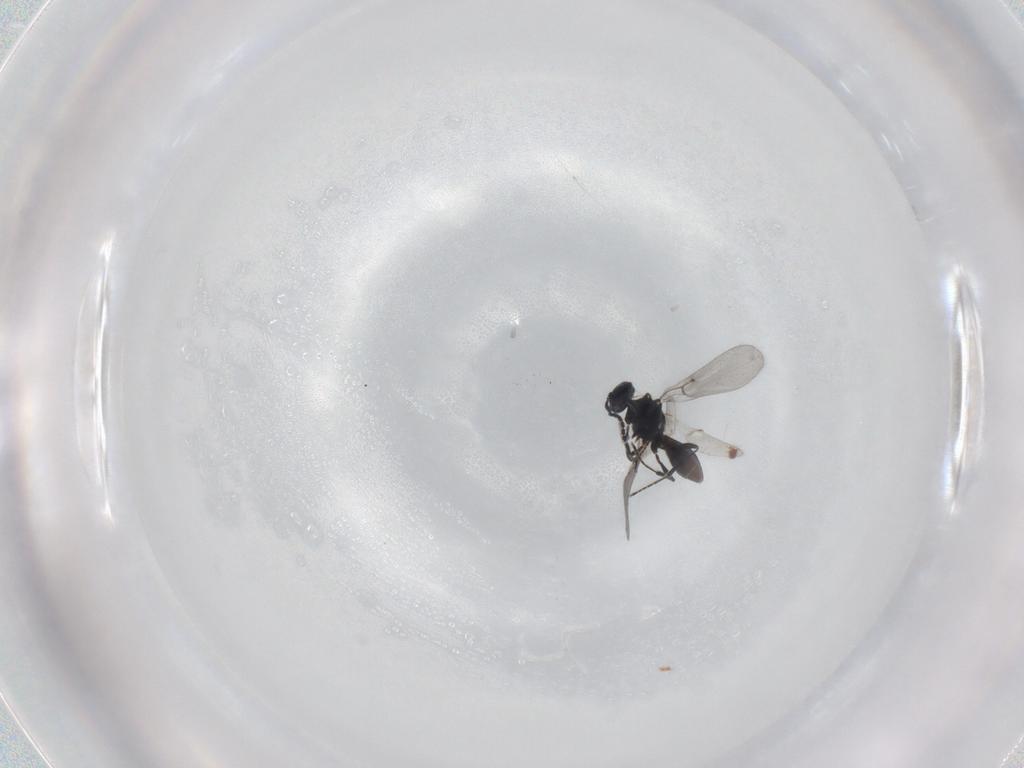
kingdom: Animalia
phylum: Arthropoda
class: Insecta
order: Hymenoptera
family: Platygastridae
